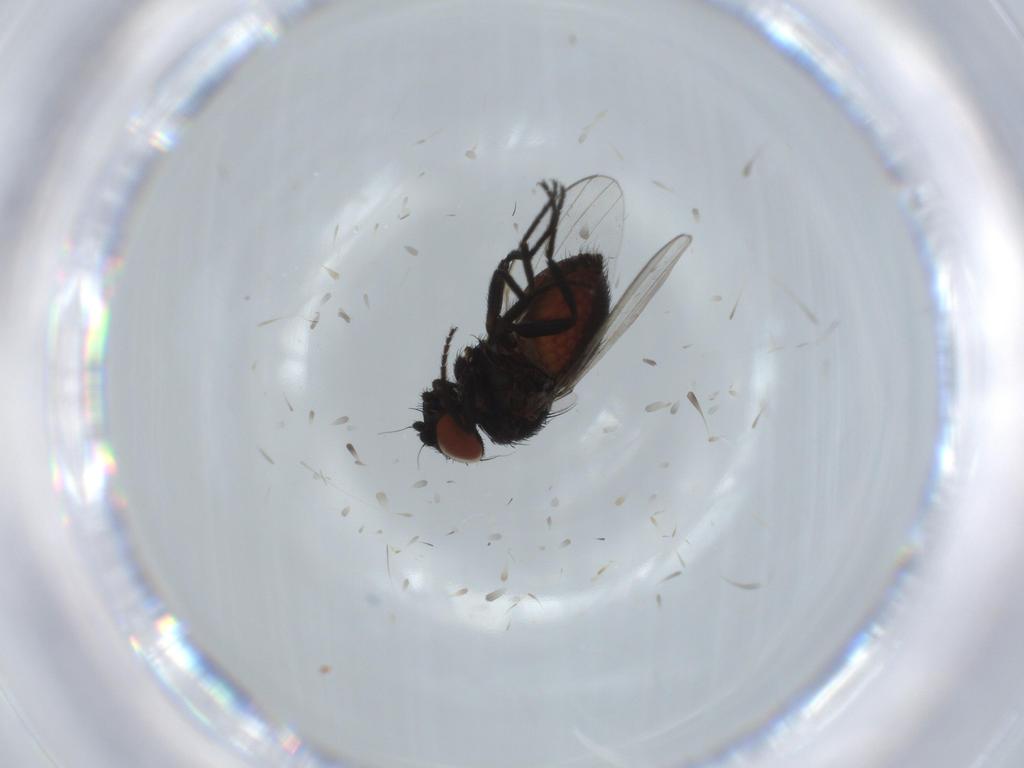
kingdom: Animalia
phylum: Arthropoda
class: Insecta
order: Diptera
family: Milichiidae
